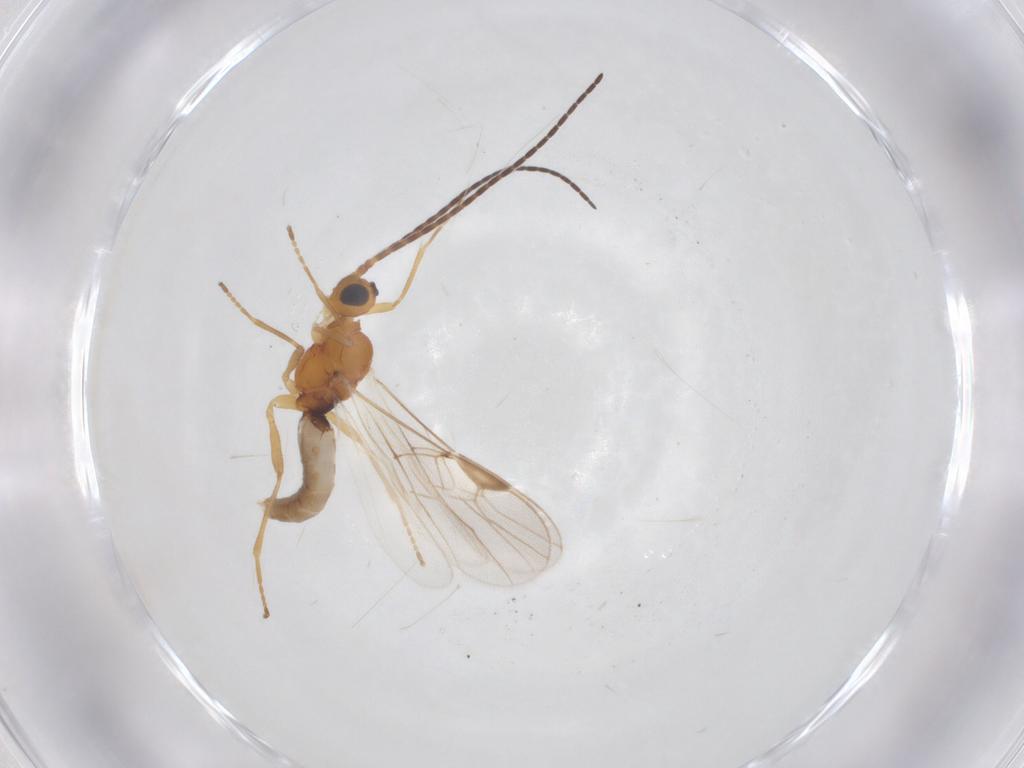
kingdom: Animalia
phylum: Arthropoda
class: Insecta
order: Hymenoptera
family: Braconidae
